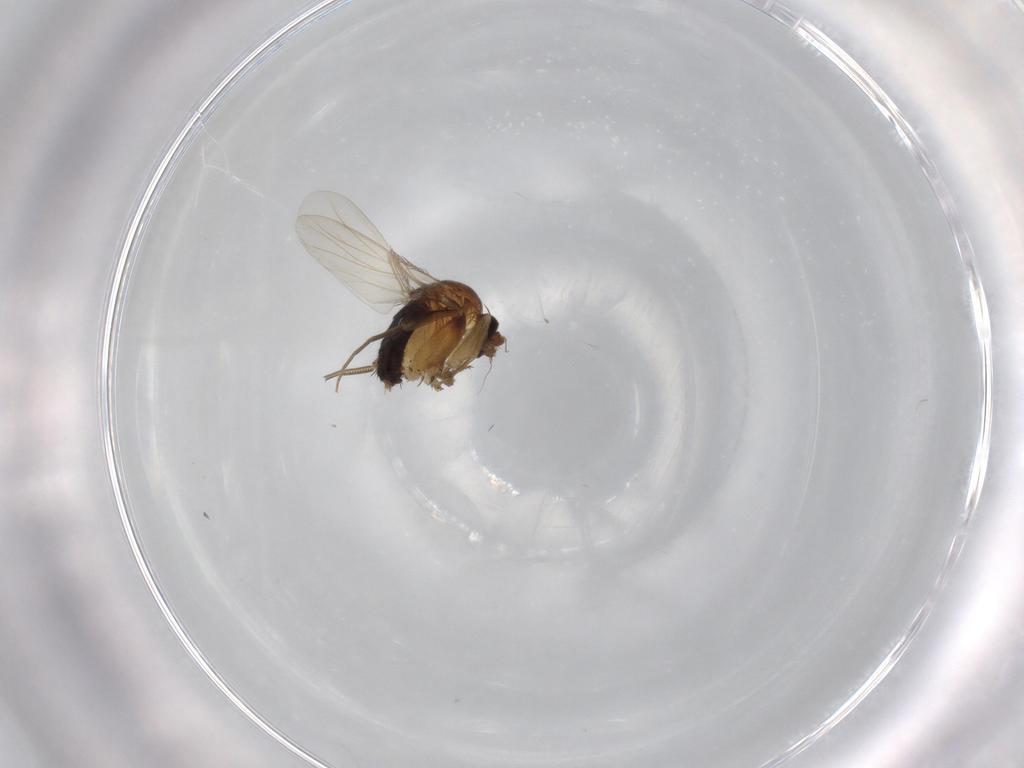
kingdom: Animalia
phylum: Arthropoda
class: Insecta
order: Diptera
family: Phoridae
